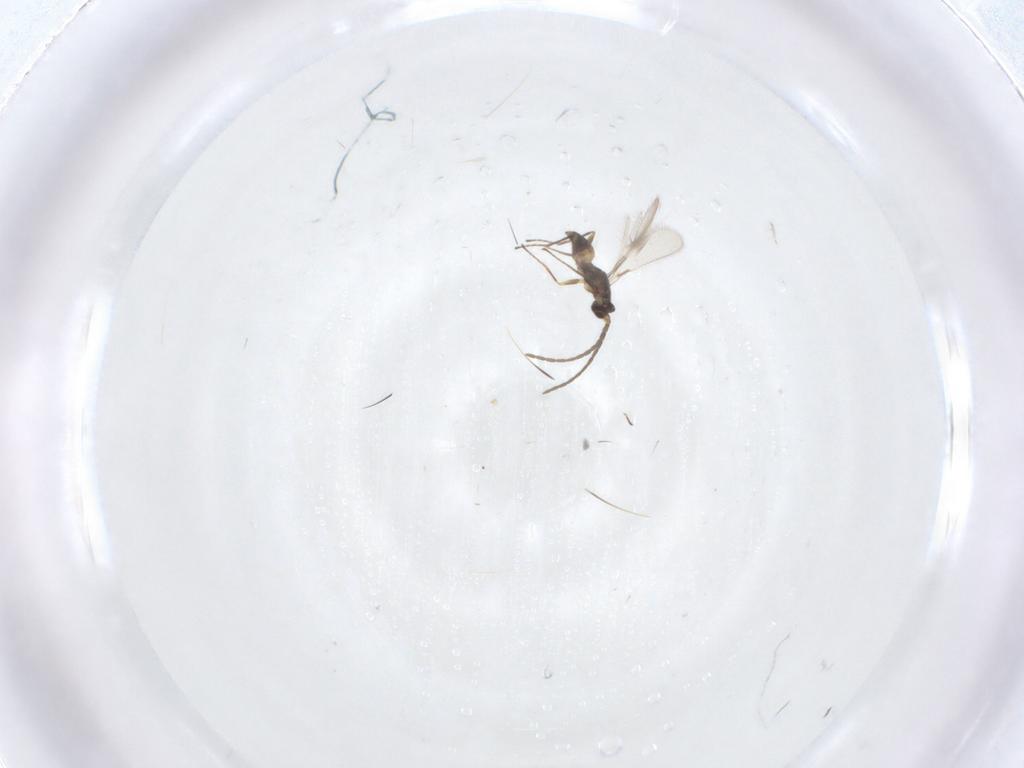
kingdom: Animalia
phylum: Arthropoda
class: Insecta
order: Hymenoptera
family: Mymaridae
